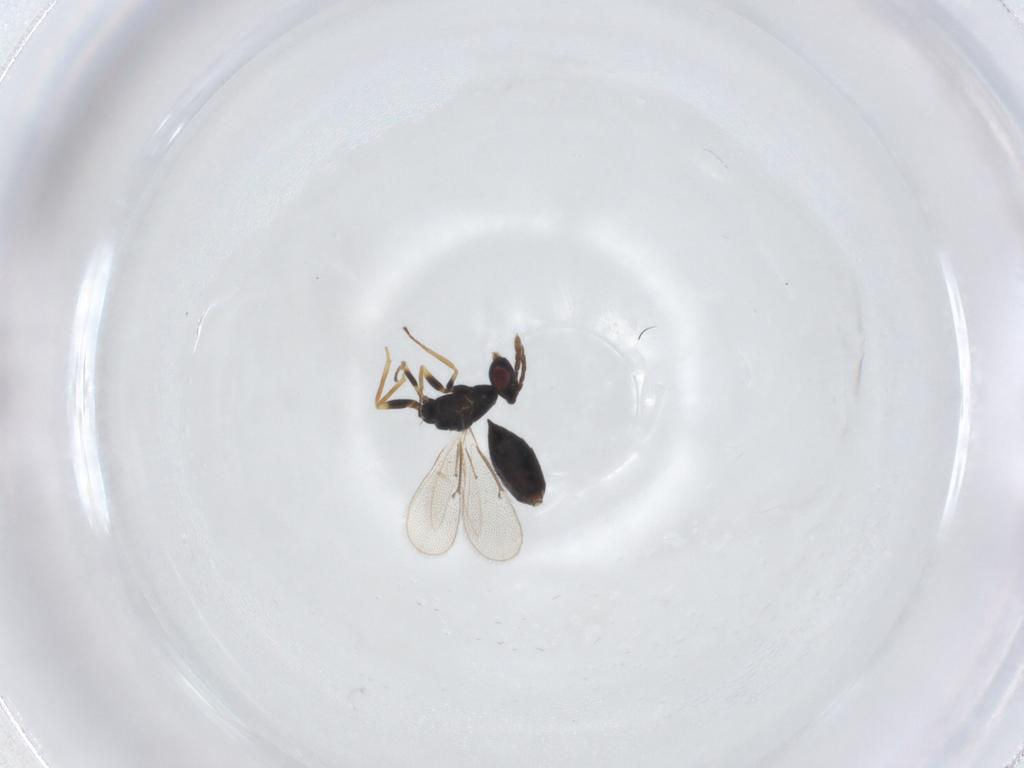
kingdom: Animalia
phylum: Arthropoda
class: Insecta
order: Hymenoptera
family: Eulophidae
